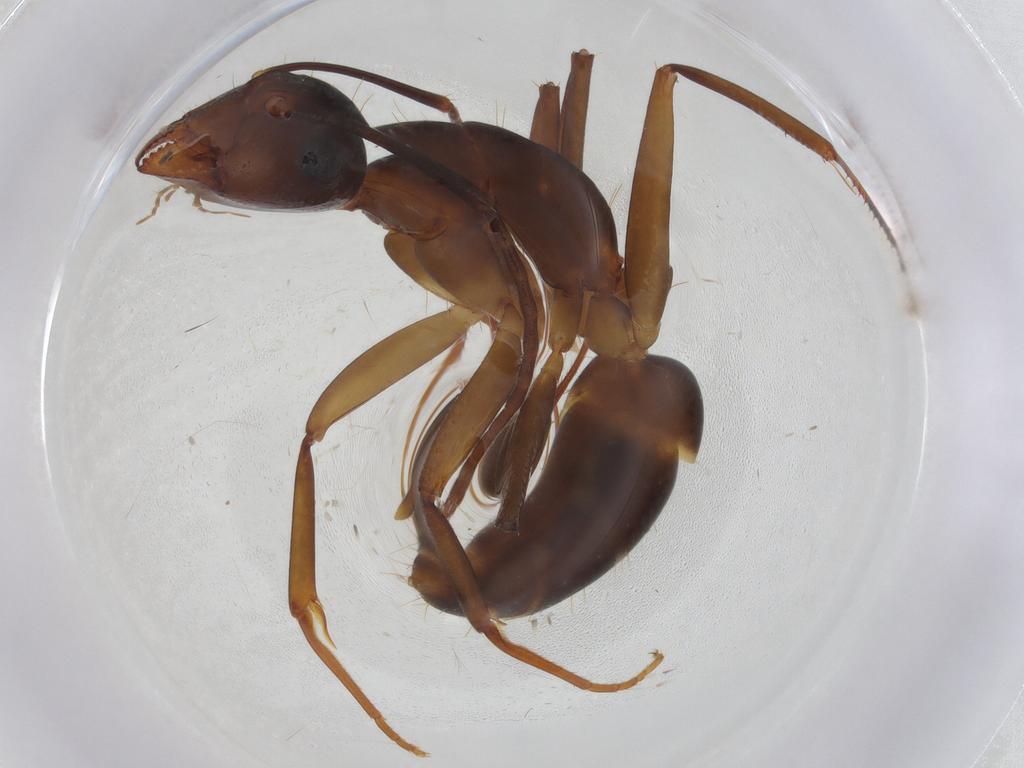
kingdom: Animalia
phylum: Arthropoda
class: Insecta
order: Hymenoptera
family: Formicidae
